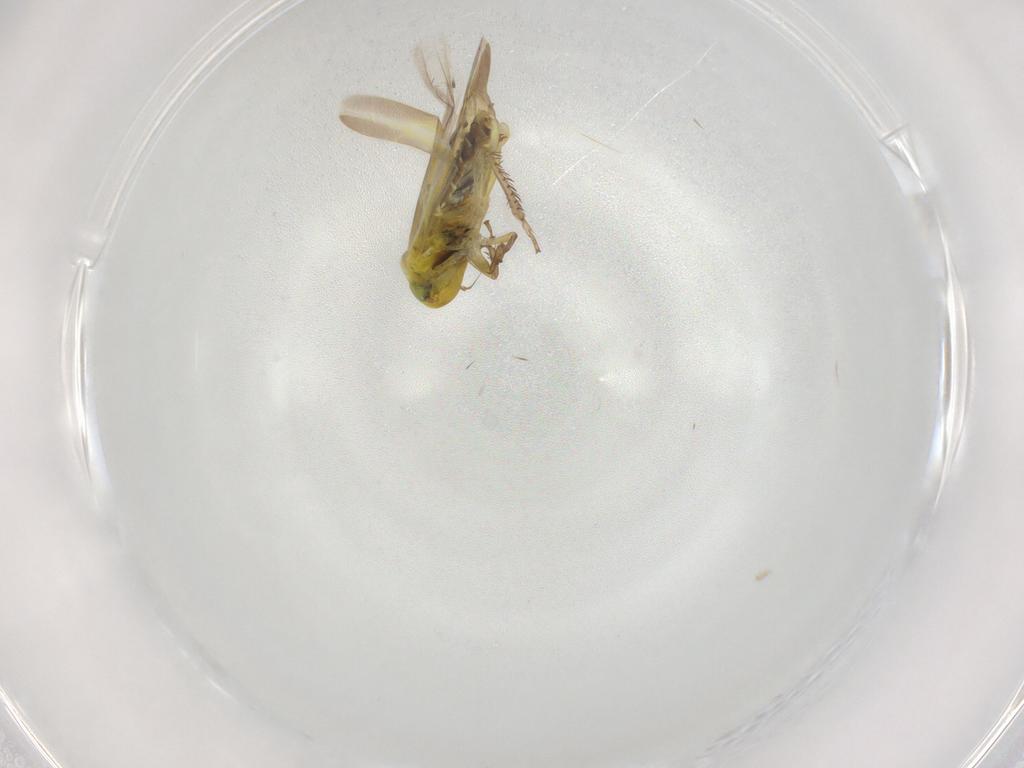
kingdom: Animalia
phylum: Arthropoda
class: Insecta
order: Hemiptera
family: Cicadellidae
